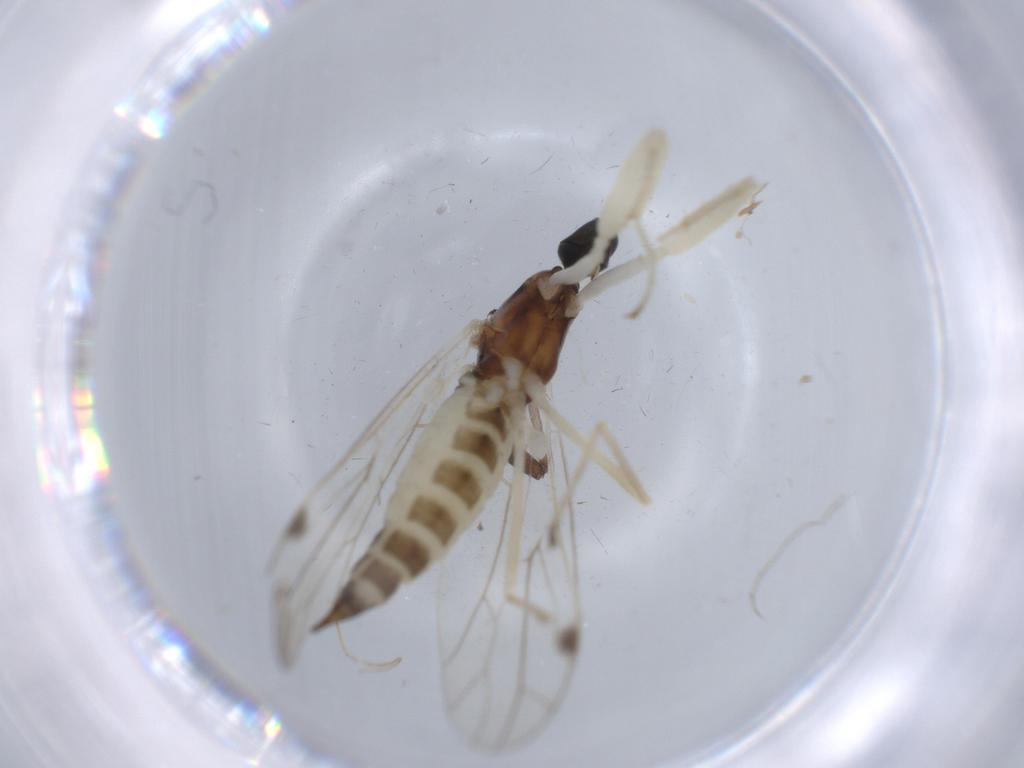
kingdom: Animalia
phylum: Arthropoda
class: Insecta
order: Diptera
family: Empididae
